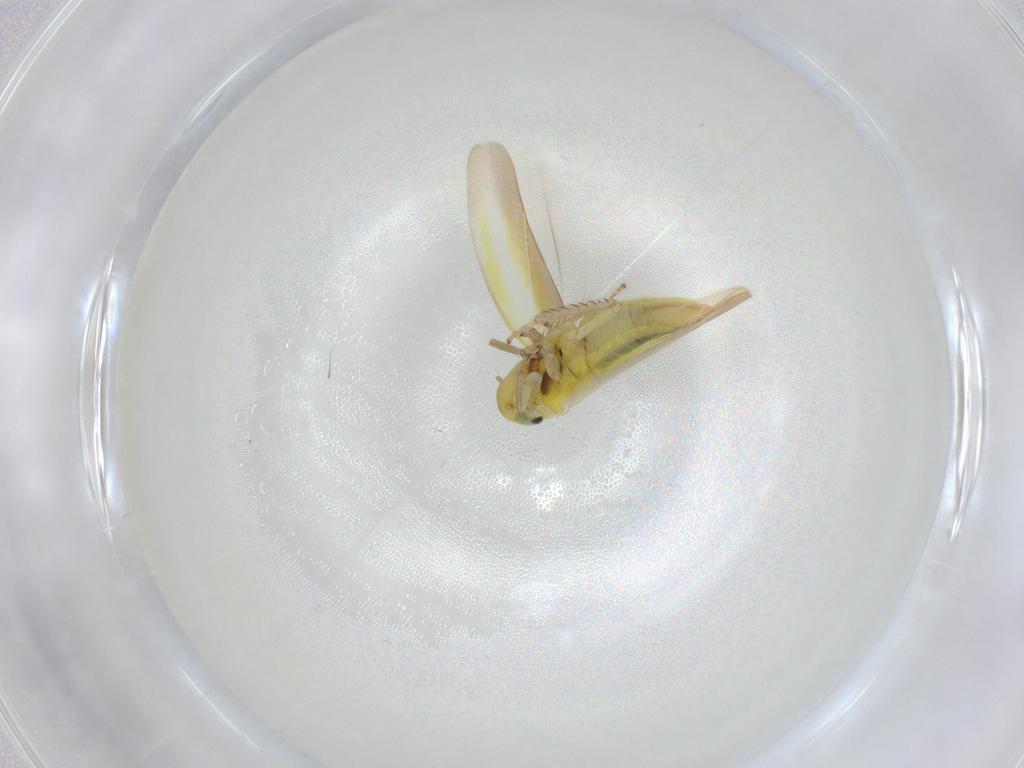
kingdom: Animalia
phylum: Arthropoda
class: Insecta
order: Hemiptera
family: Cicadellidae
